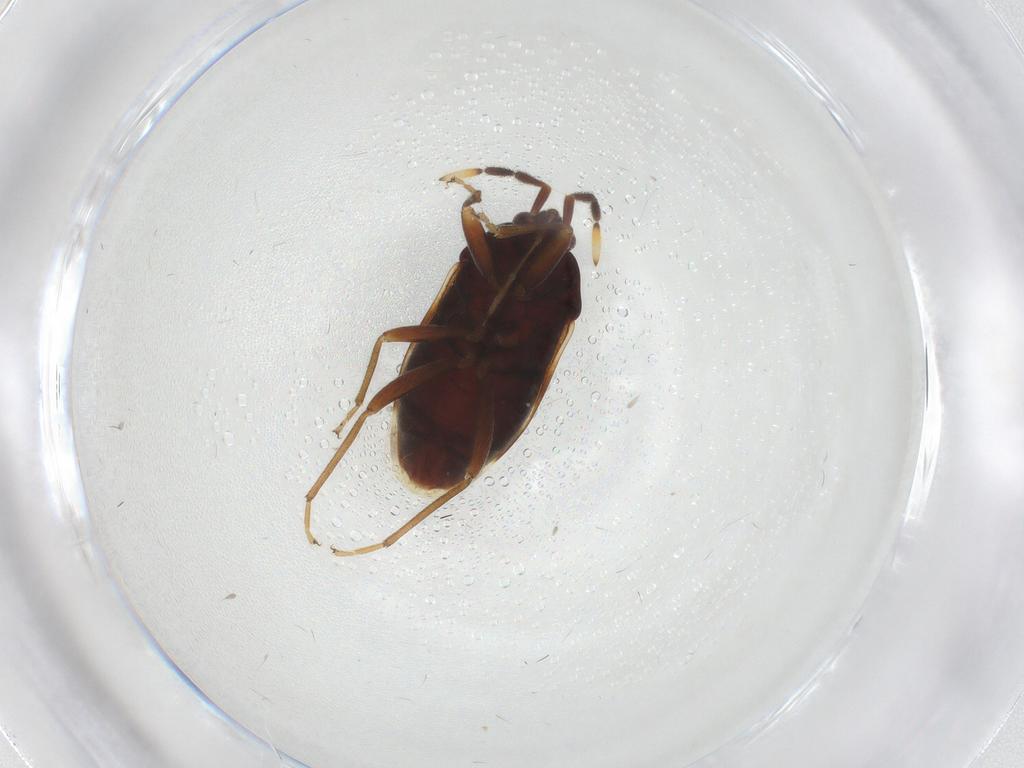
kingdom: Animalia
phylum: Arthropoda
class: Insecta
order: Hemiptera
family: Rhyparochromidae
